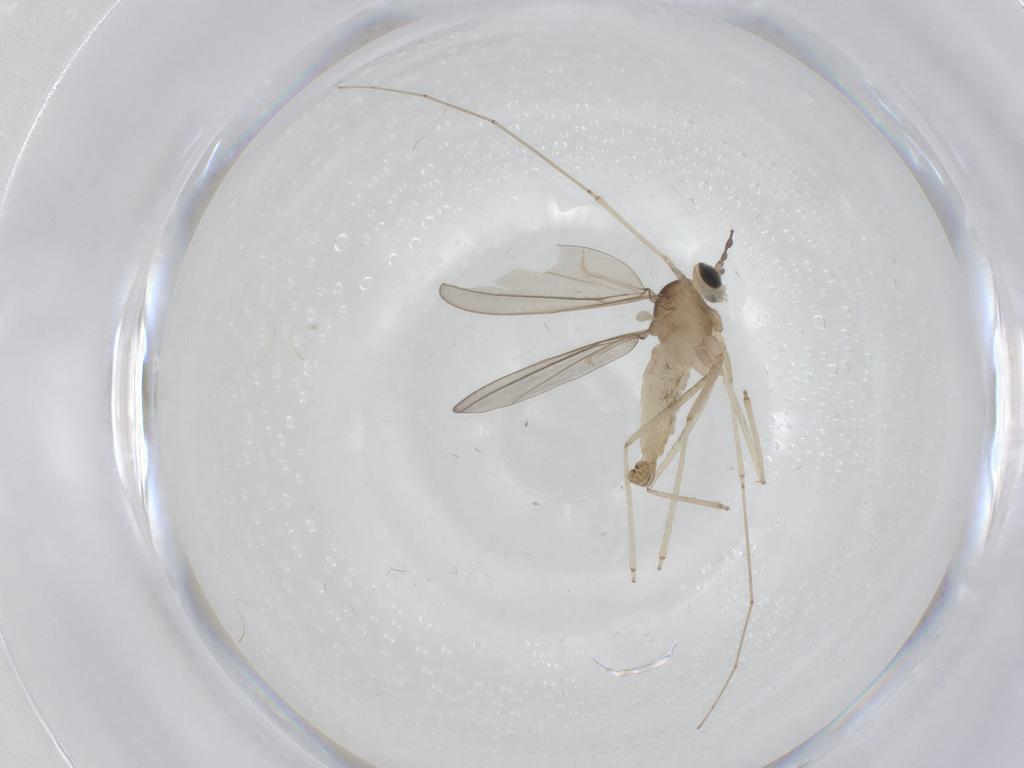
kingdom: Animalia
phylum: Arthropoda
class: Insecta
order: Diptera
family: Cecidomyiidae
